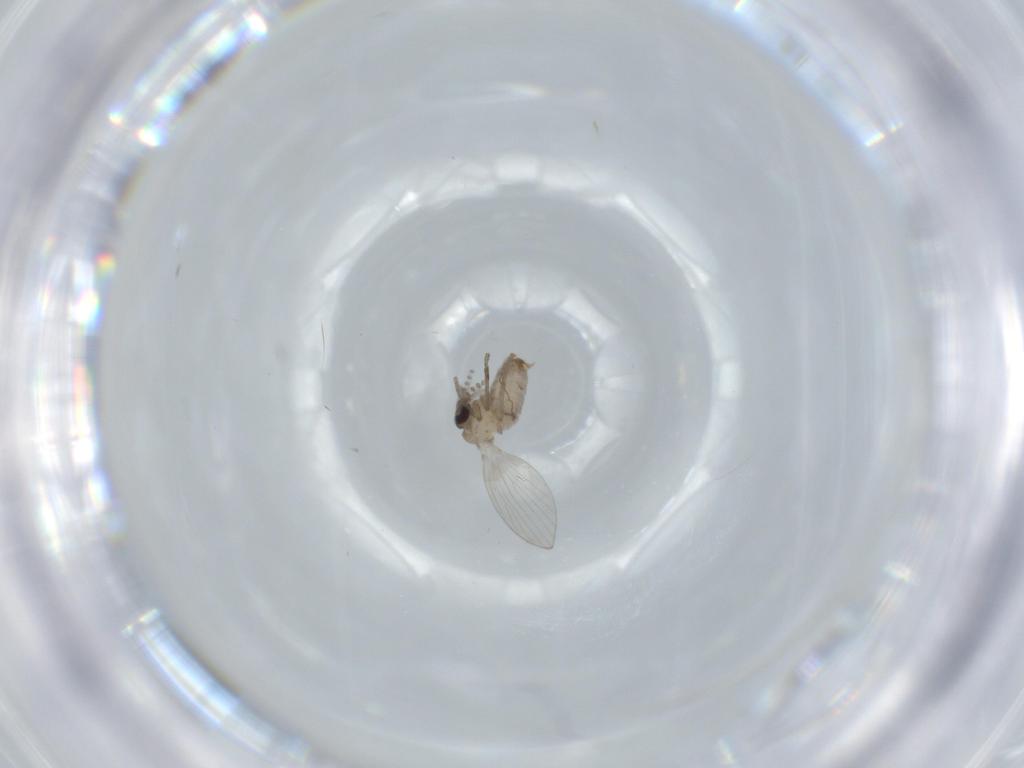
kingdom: Animalia
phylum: Arthropoda
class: Insecta
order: Diptera
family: Psychodidae
